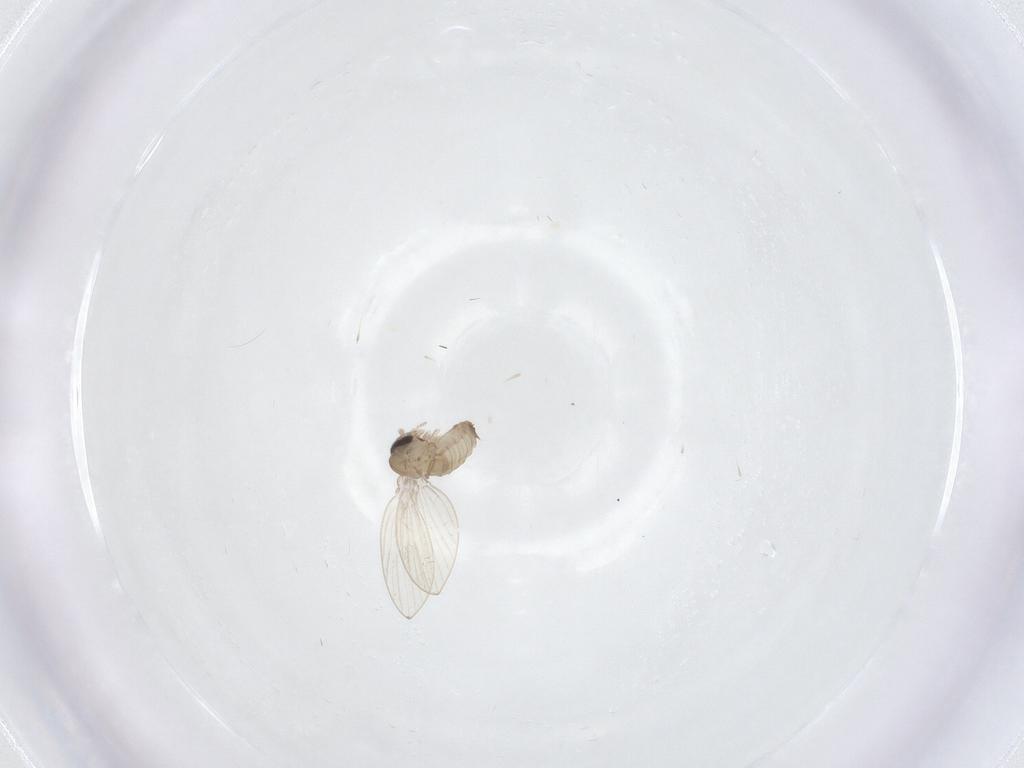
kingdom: Animalia
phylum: Arthropoda
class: Insecta
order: Diptera
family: Psychodidae
